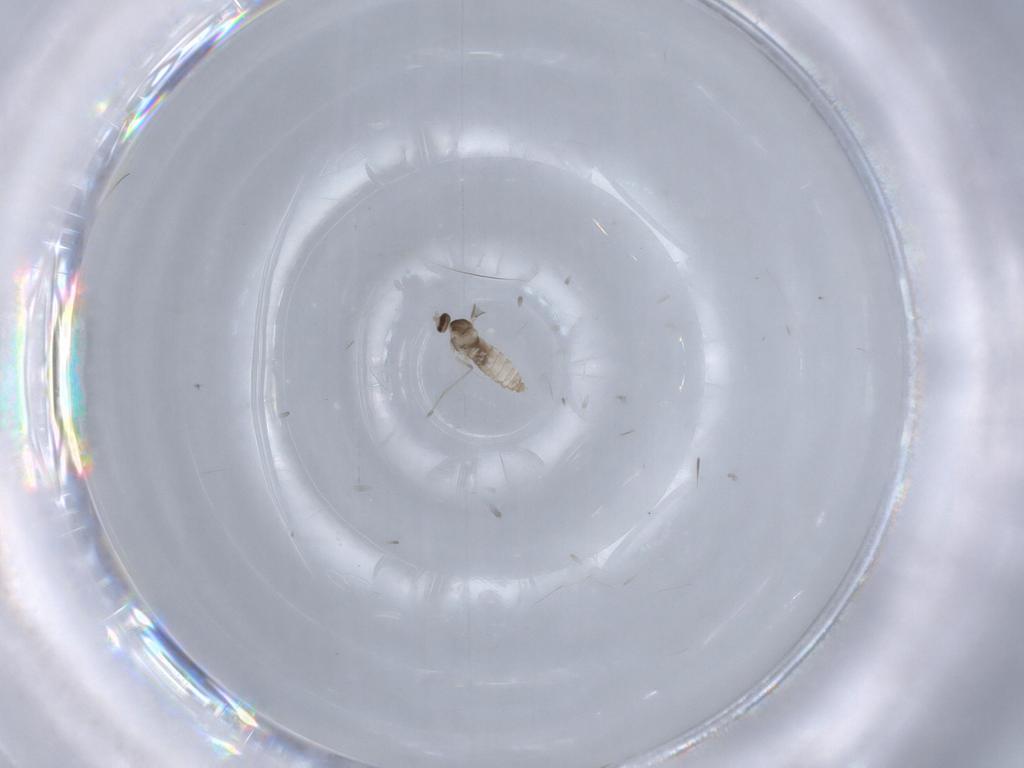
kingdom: Animalia
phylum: Arthropoda
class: Insecta
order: Diptera
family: Cecidomyiidae
